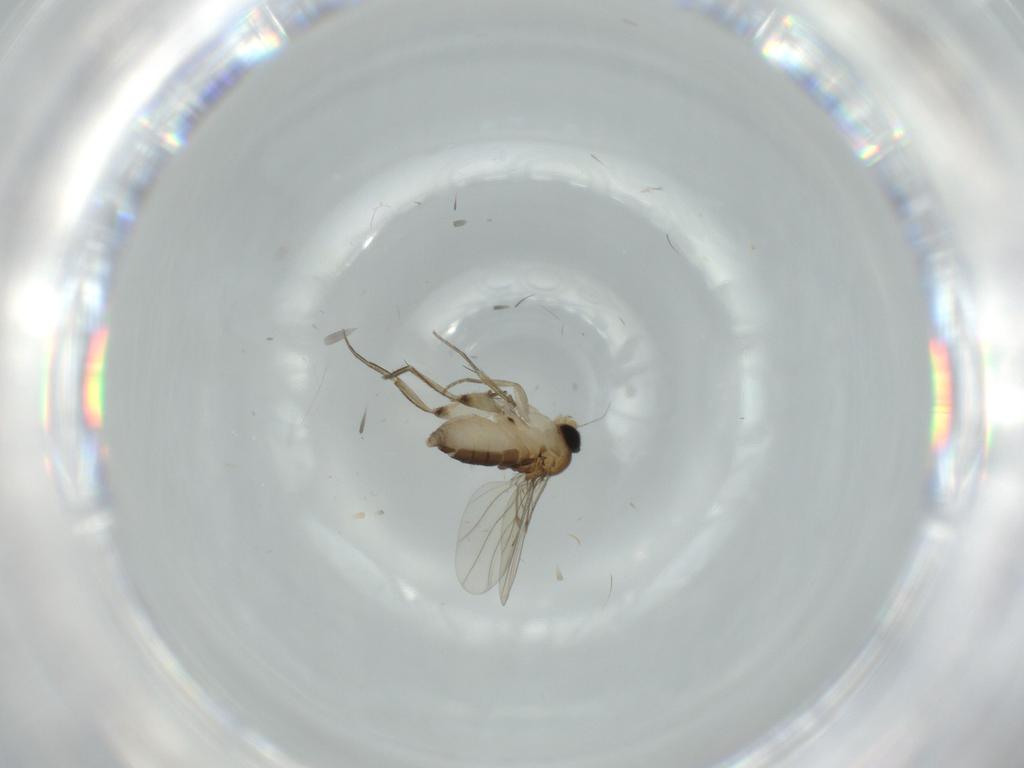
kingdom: Animalia
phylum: Arthropoda
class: Insecta
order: Diptera
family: Phoridae
